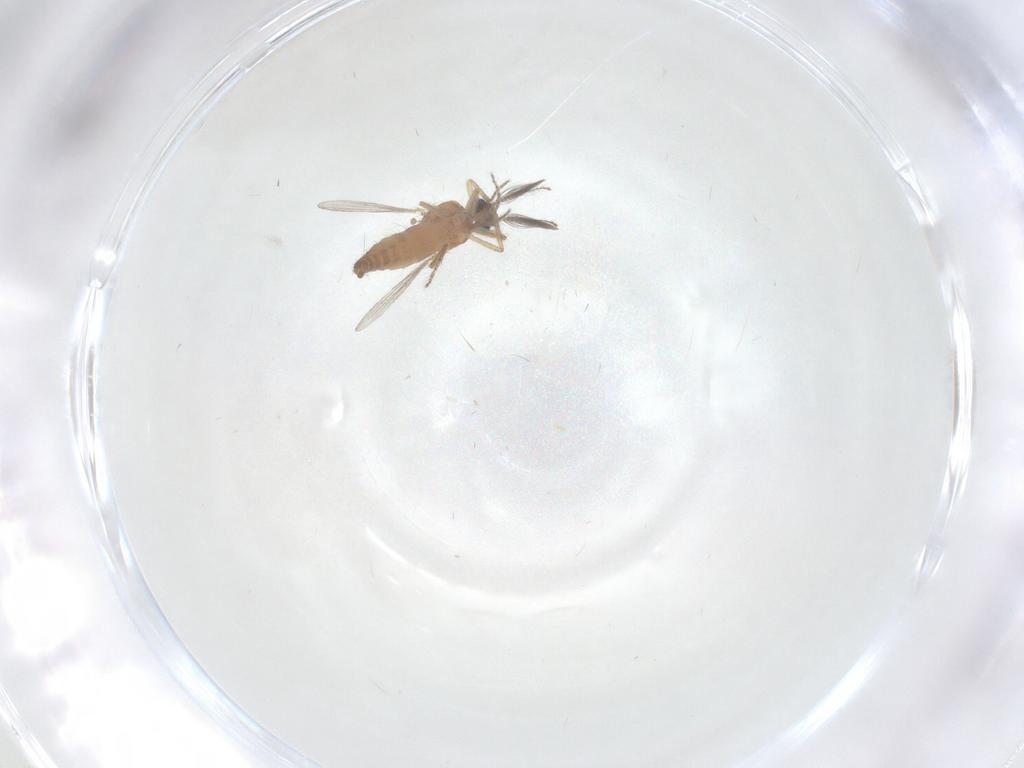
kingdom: Animalia
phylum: Arthropoda
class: Insecta
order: Diptera
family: Ceratopogonidae
